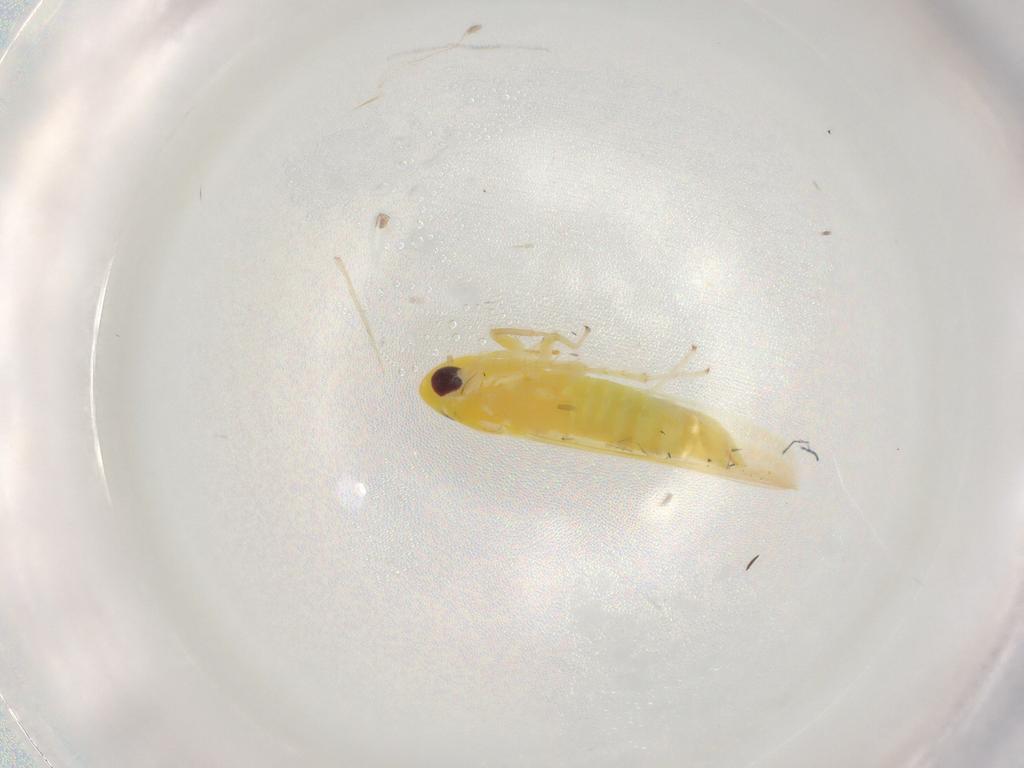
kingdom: Animalia
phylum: Arthropoda
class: Insecta
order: Hemiptera
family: Cicadellidae
